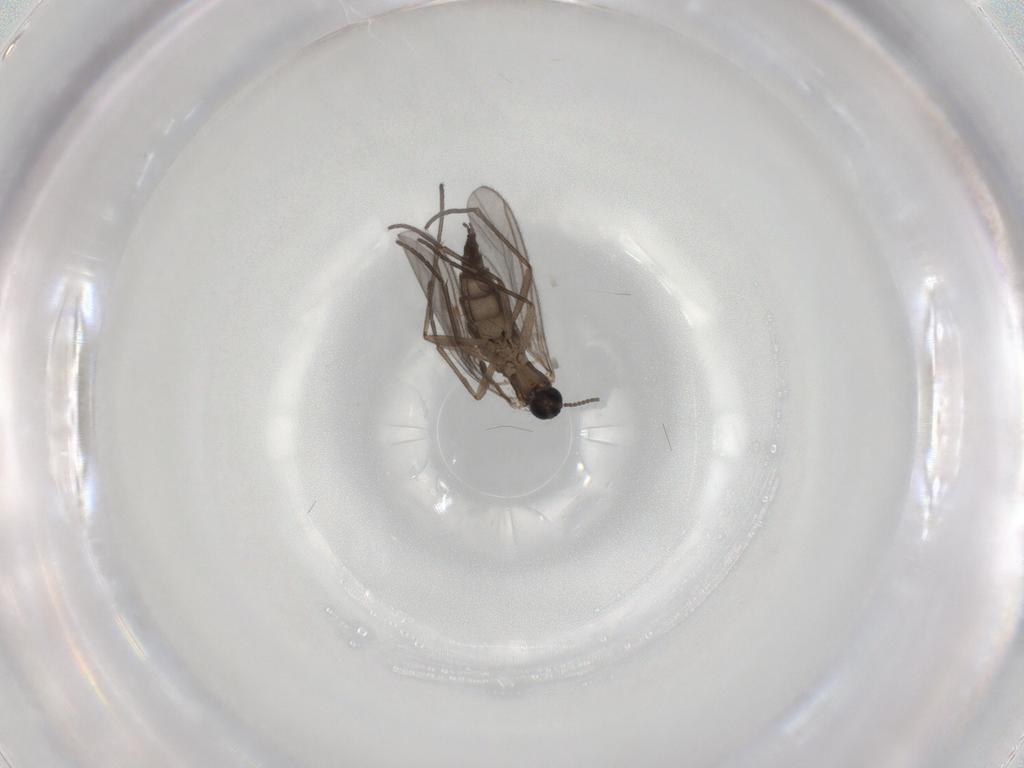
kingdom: Animalia
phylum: Arthropoda
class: Insecta
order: Diptera
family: Sciaridae
